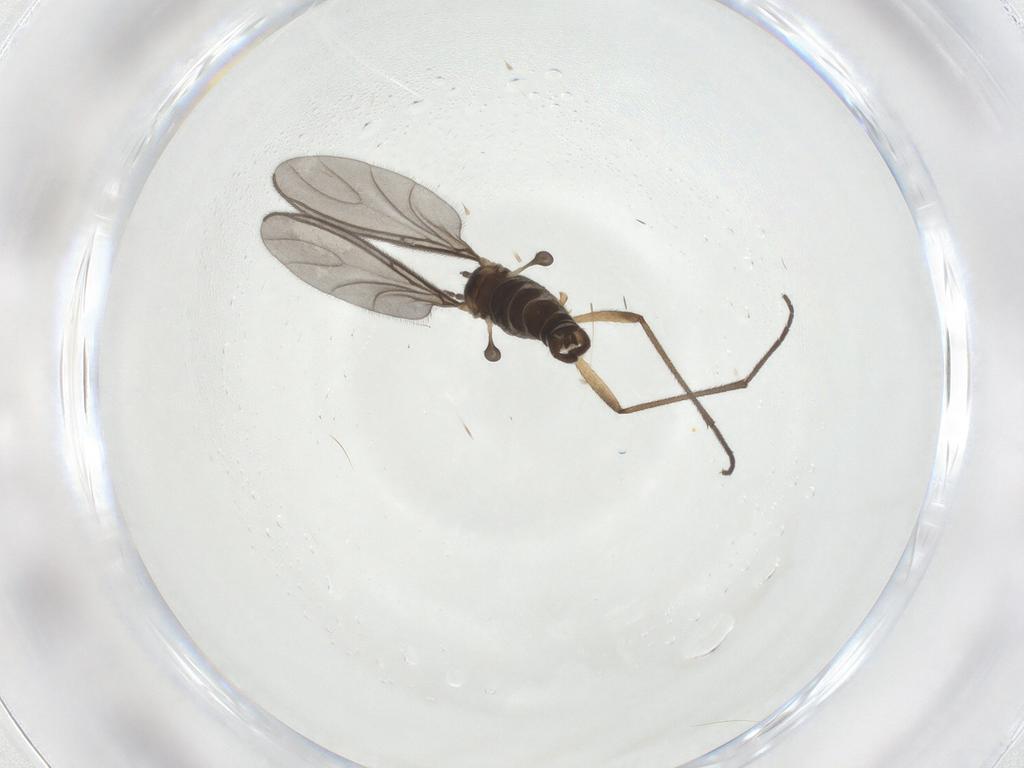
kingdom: Animalia
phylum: Arthropoda
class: Insecta
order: Diptera
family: Sciaridae
